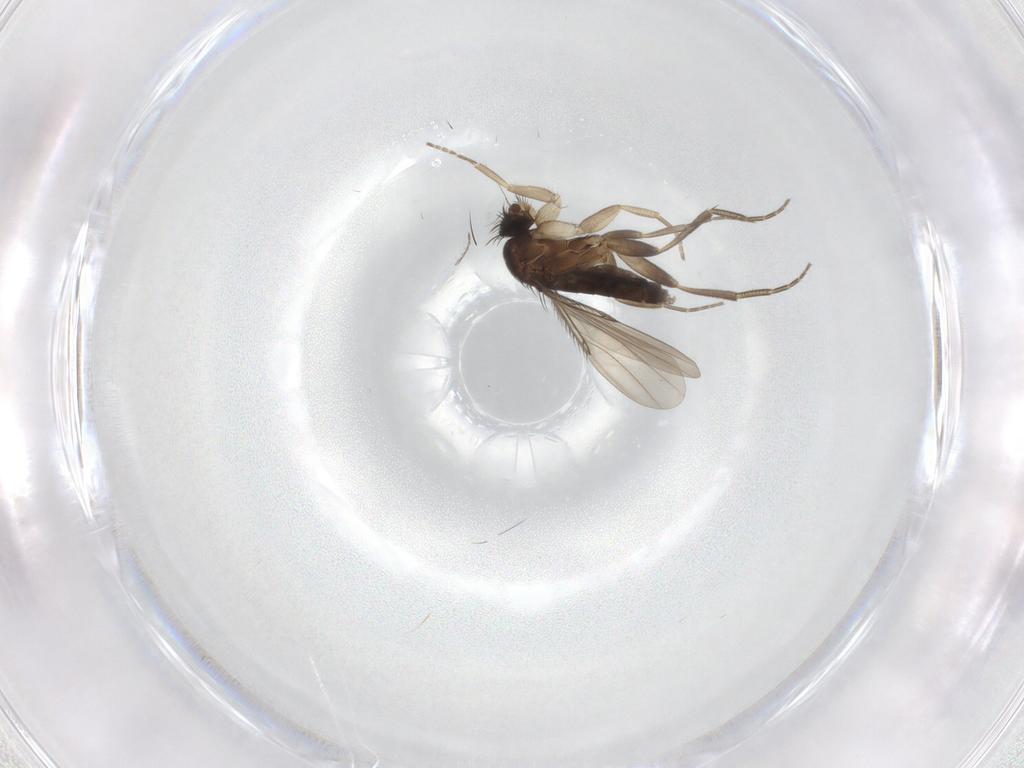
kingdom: Animalia
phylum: Arthropoda
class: Insecta
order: Diptera
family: Phoridae
